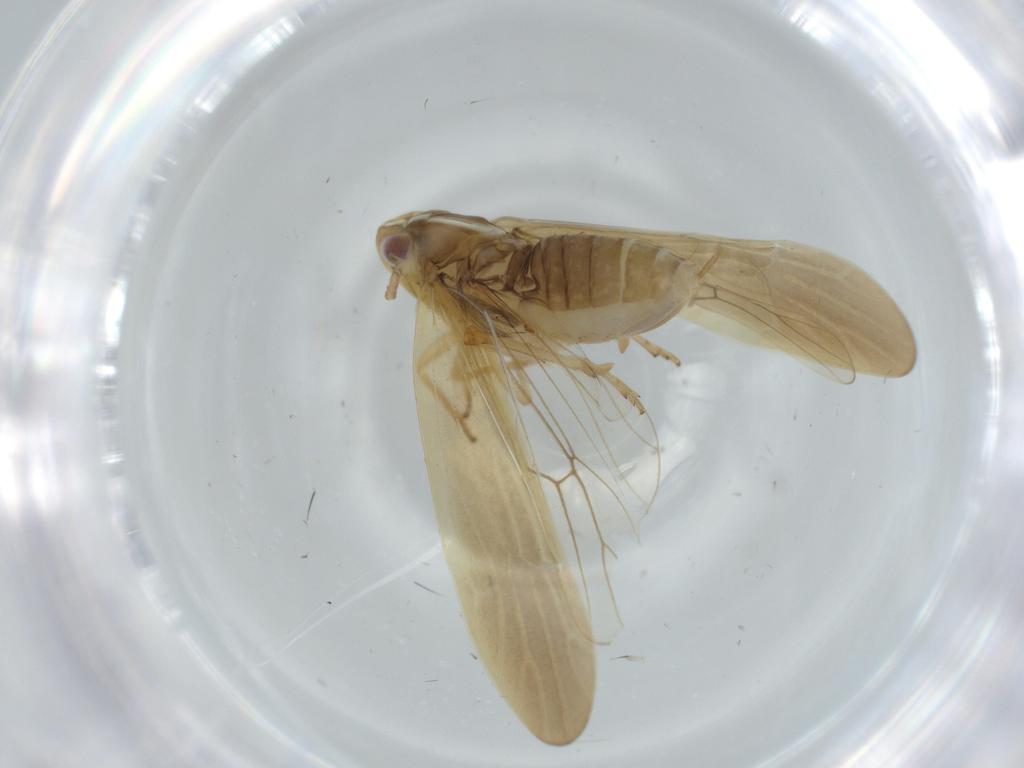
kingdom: Animalia
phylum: Arthropoda
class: Insecta
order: Hemiptera
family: Delphacidae
